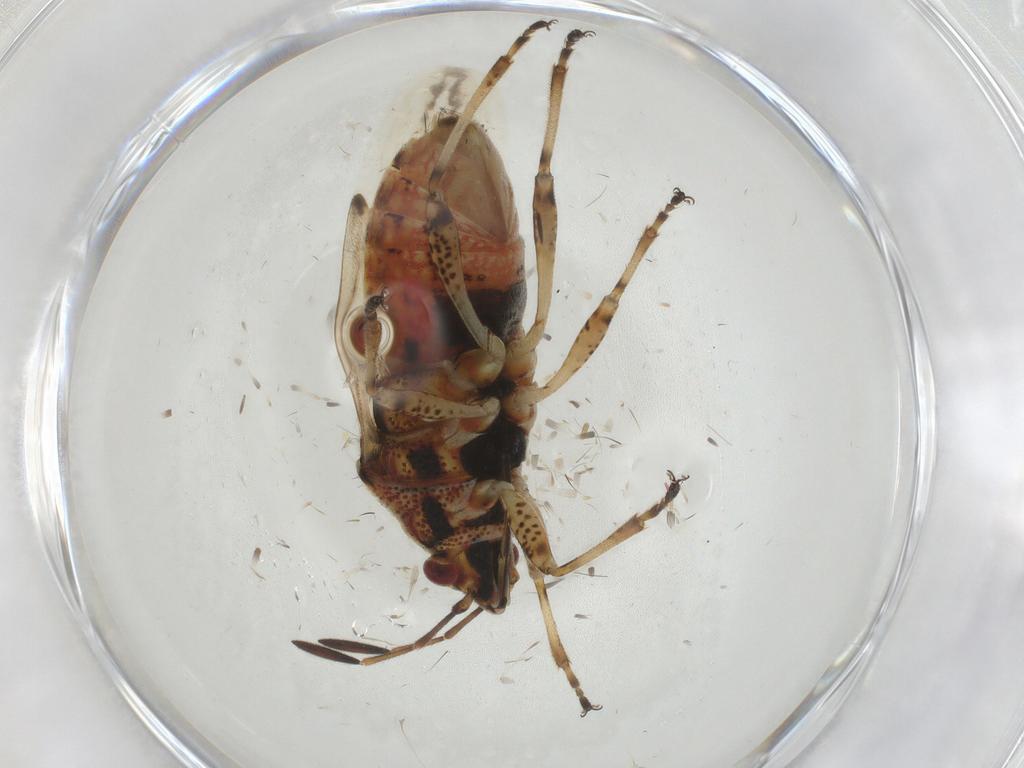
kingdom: Animalia
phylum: Arthropoda
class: Insecta
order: Hemiptera
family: Lygaeidae
